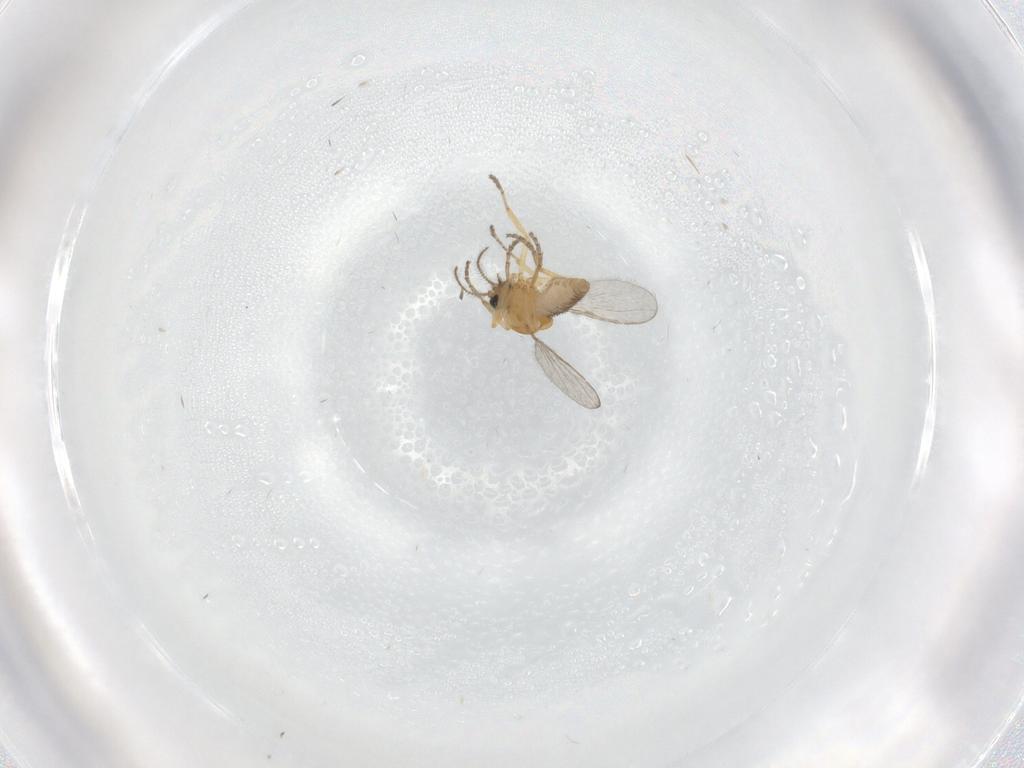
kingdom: Animalia
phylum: Arthropoda
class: Insecta
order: Diptera
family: Ceratopogonidae
